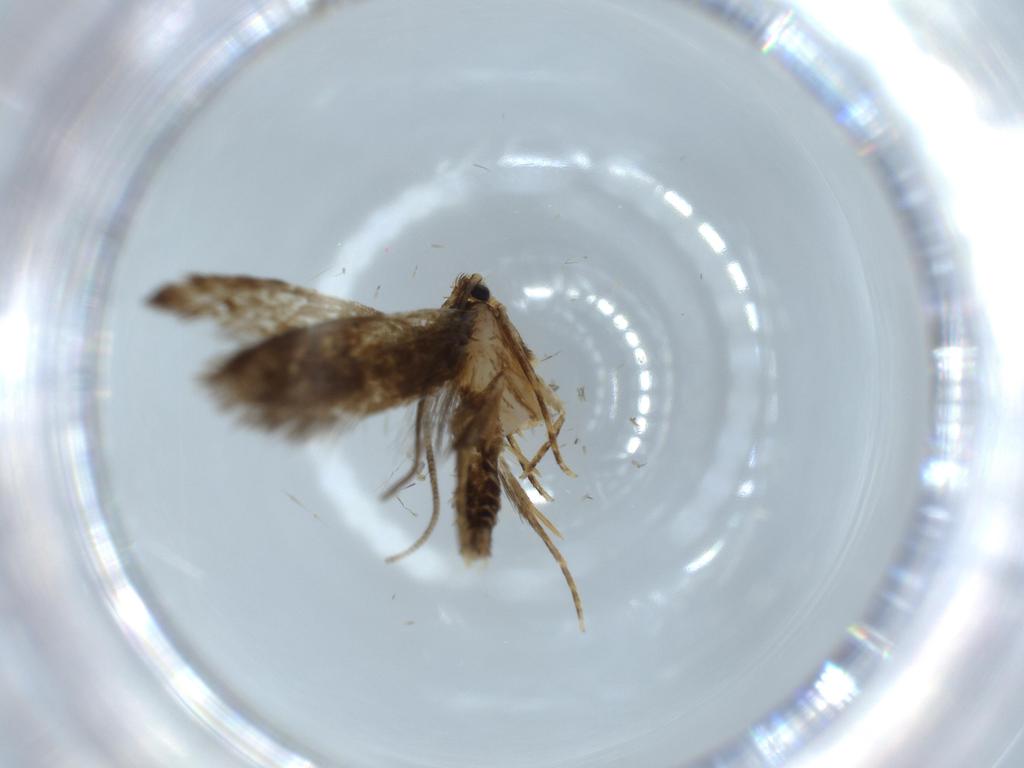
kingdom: Animalia
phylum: Arthropoda
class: Insecta
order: Lepidoptera
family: Tineidae
